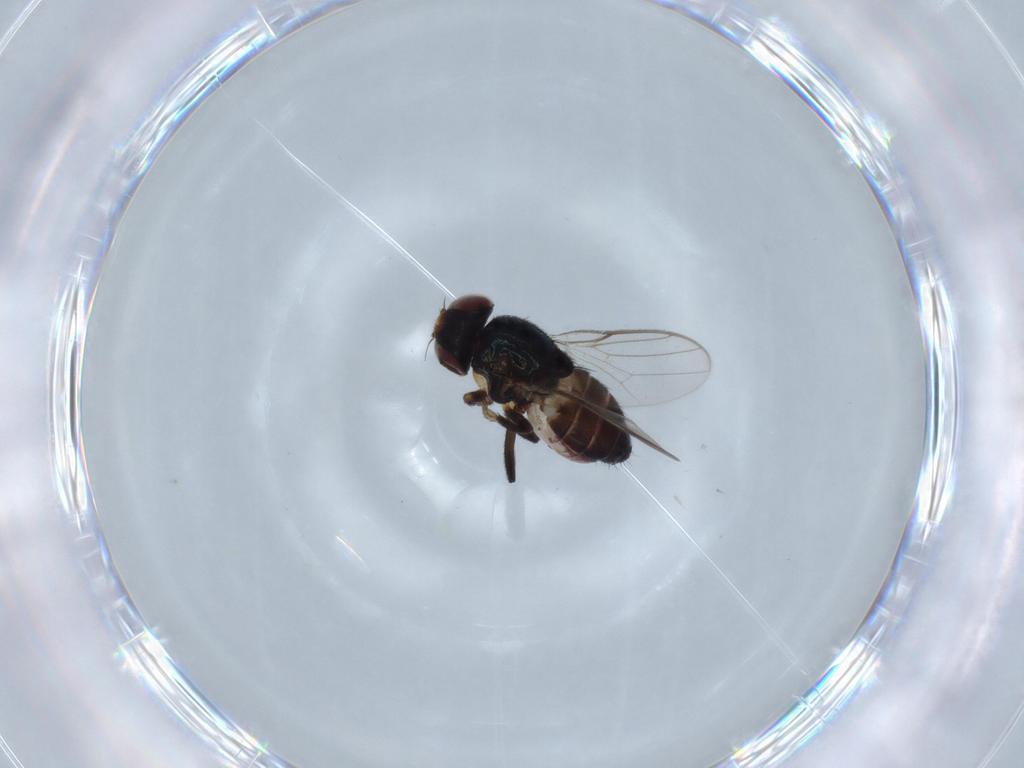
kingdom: Animalia
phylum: Arthropoda
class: Insecta
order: Diptera
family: Chloropidae
